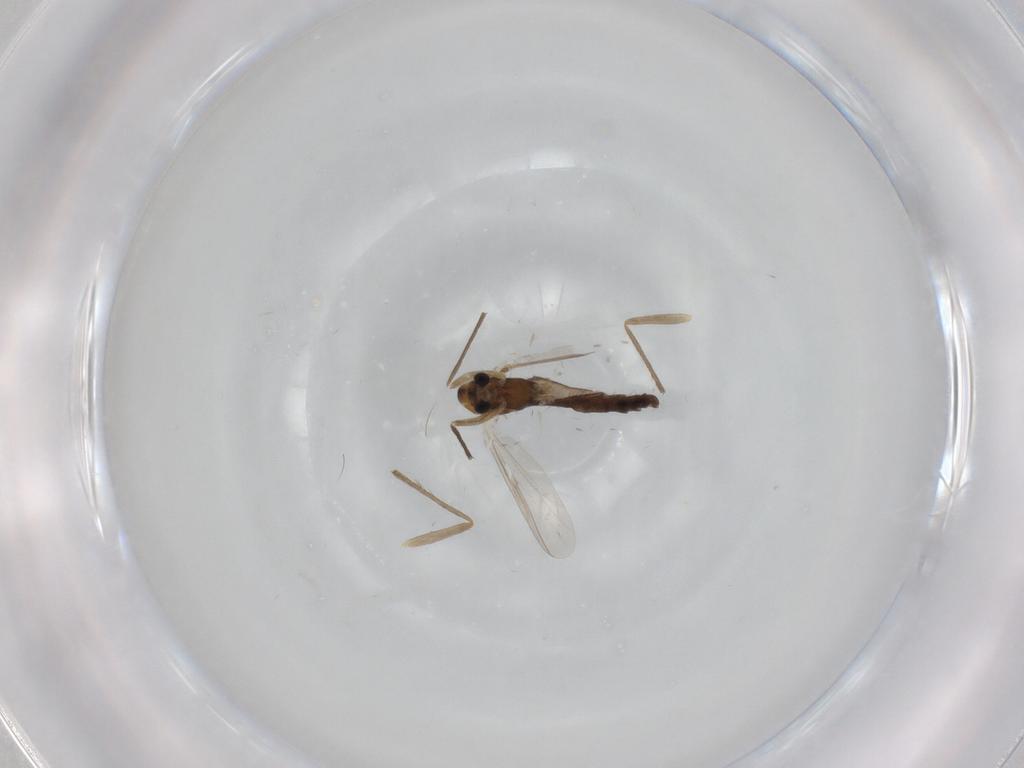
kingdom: Animalia
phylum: Arthropoda
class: Insecta
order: Diptera
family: Chironomidae
